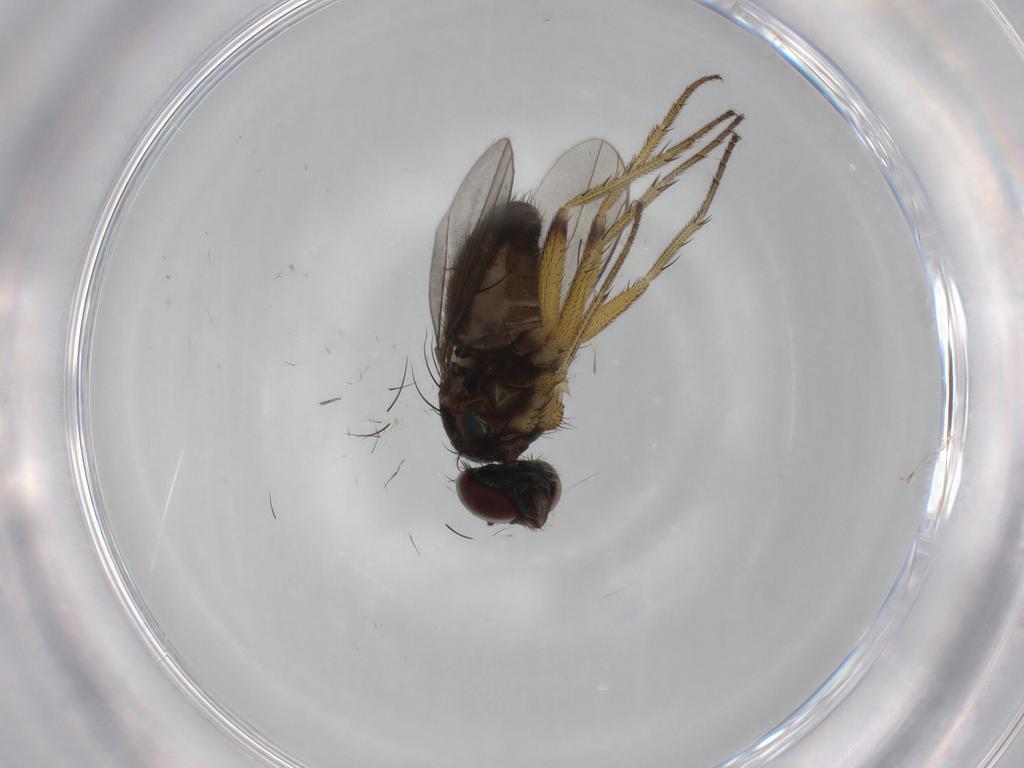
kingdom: Animalia
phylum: Arthropoda
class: Insecta
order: Diptera
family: Dolichopodidae
